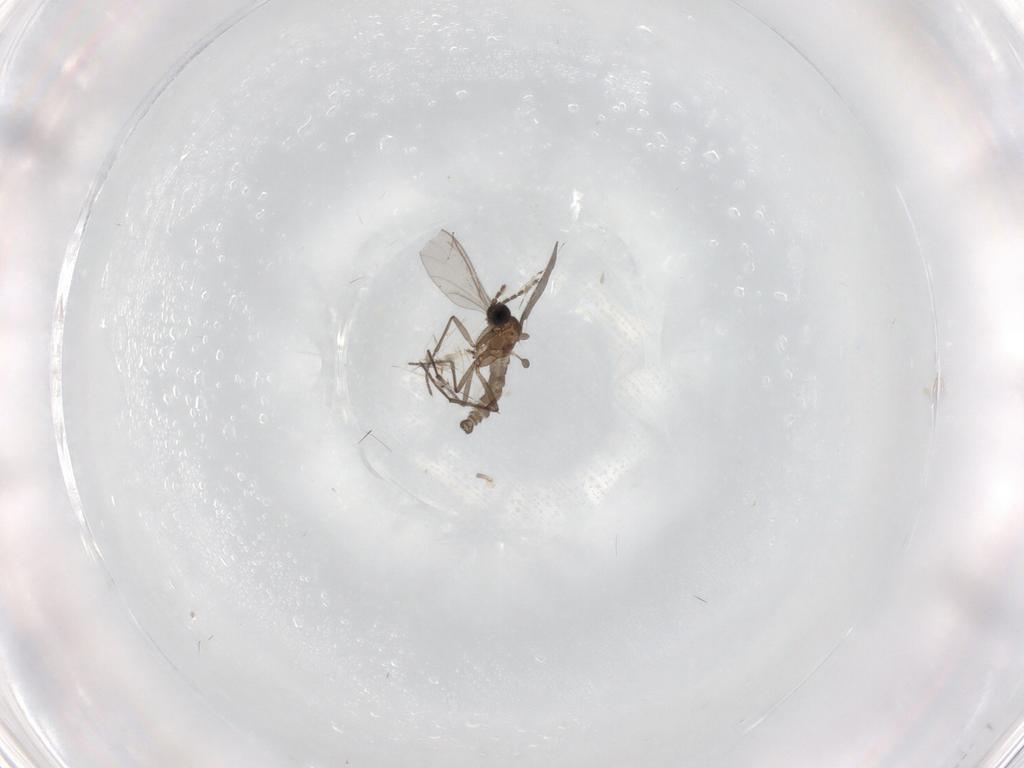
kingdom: Animalia
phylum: Arthropoda
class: Insecta
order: Diptera
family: Sciaridae
